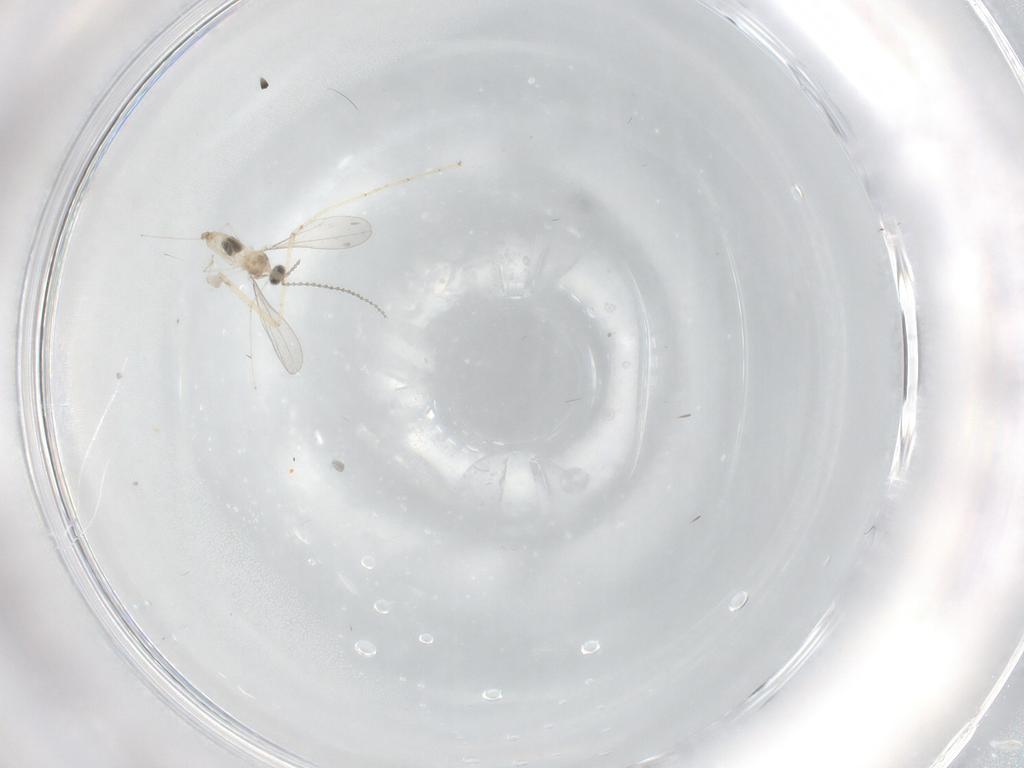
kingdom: Animalia
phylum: Arthropoda
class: Insecta
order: Diptera
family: Cecidomyiidae
